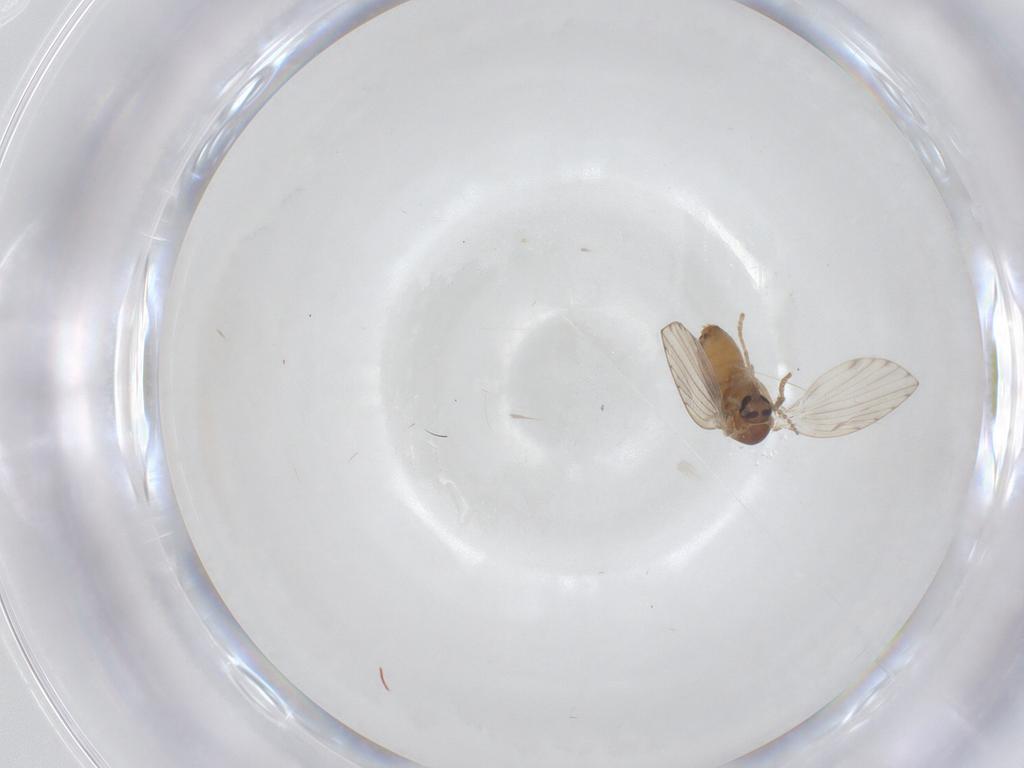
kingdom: Animalia
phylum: Arthropoda
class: Insecta
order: Diptera
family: Psychodidae
